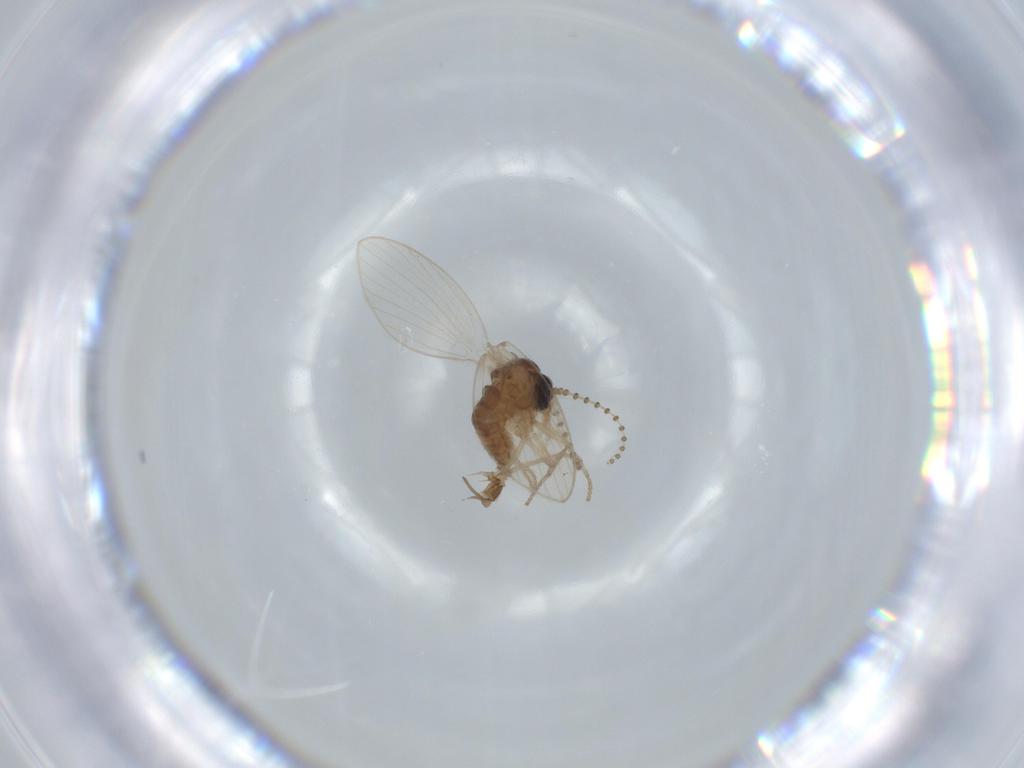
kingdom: Animalia
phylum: Arthropoda
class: Insecta
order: Diptera
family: Psychodidae
